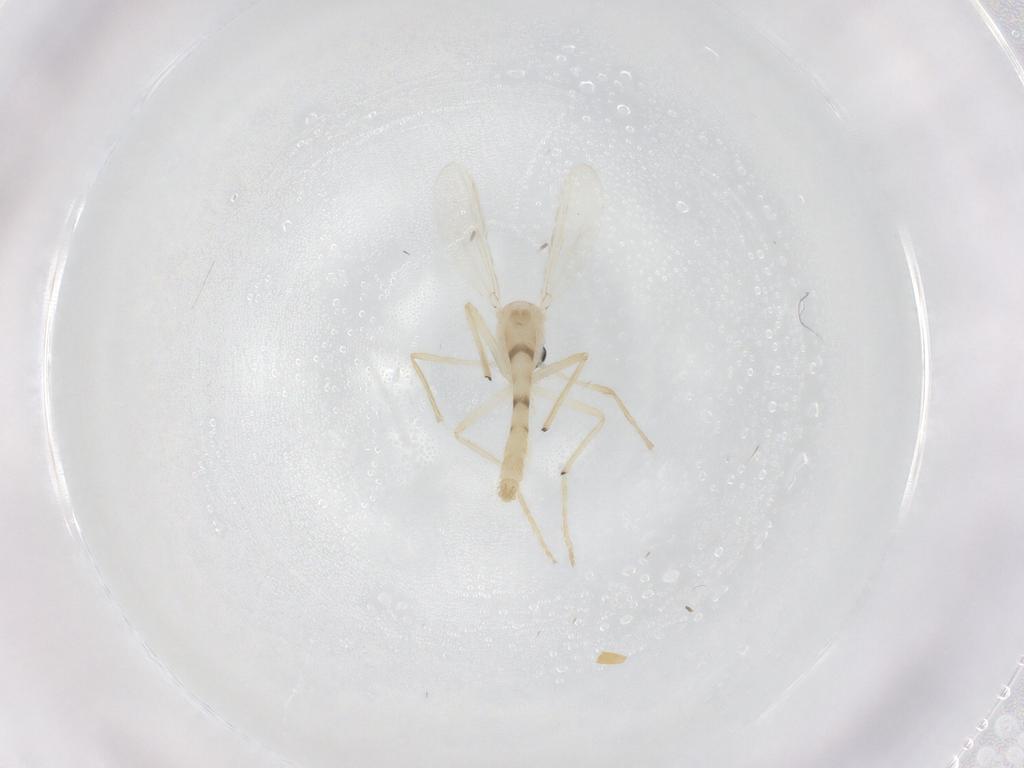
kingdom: Animalia
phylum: Arthropoda
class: Insecta
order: Diptera
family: Chironomidae
